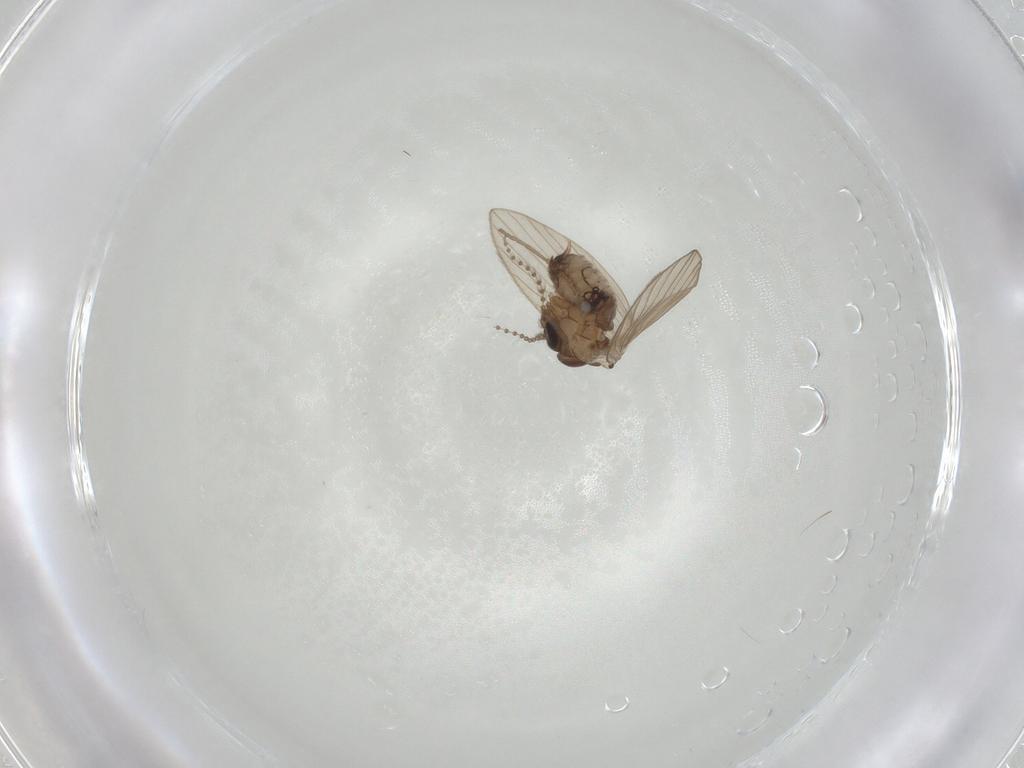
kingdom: Animalia
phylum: Arthropoda
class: Insecta
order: Diptera
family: Psychodidae
